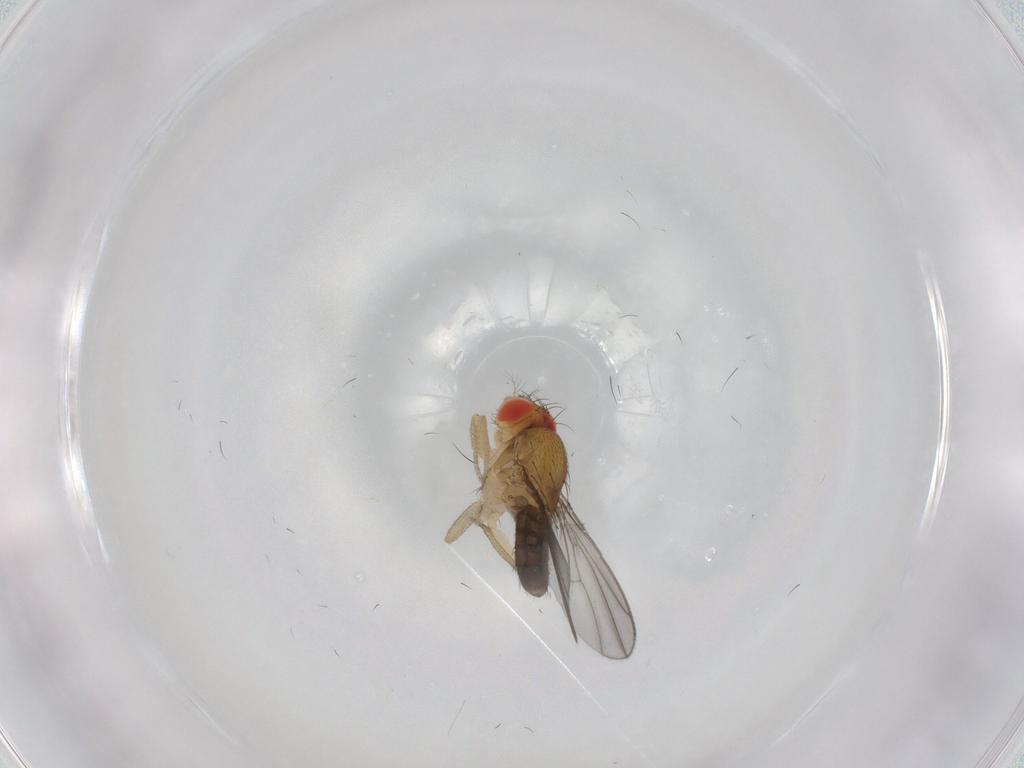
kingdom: Animalia
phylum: Arthropoda
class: Insecta
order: Diptera
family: Drosophilidae
